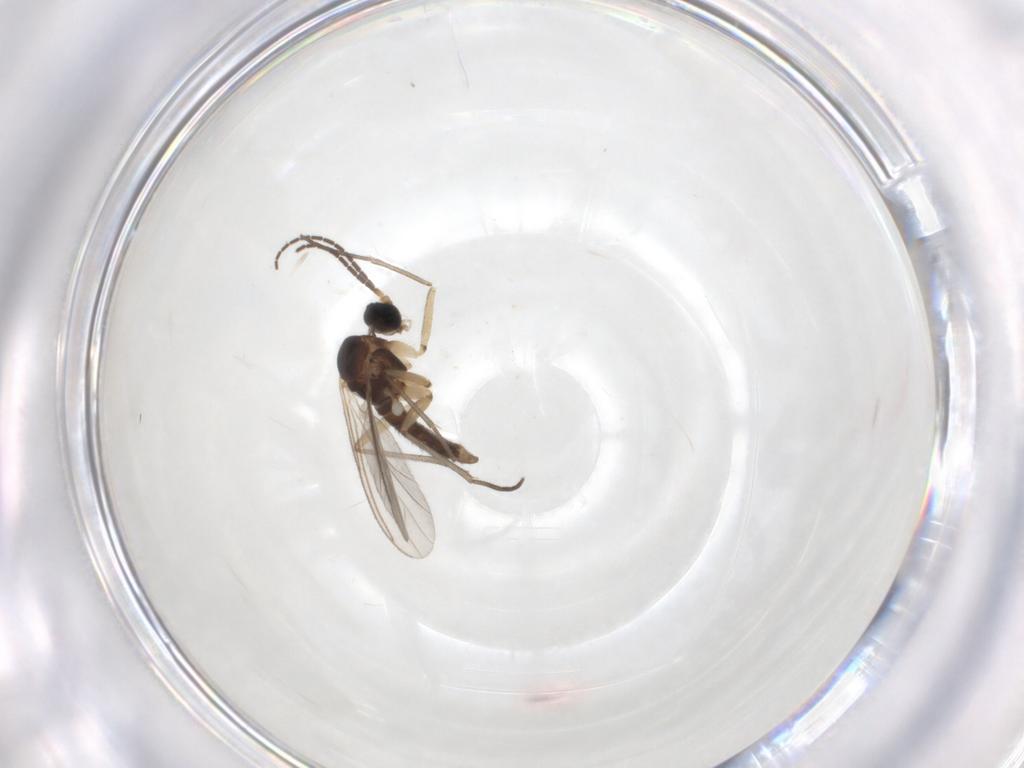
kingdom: Animalia
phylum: Arthropoda
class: Insecta
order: Diptera
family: Sciaridae
